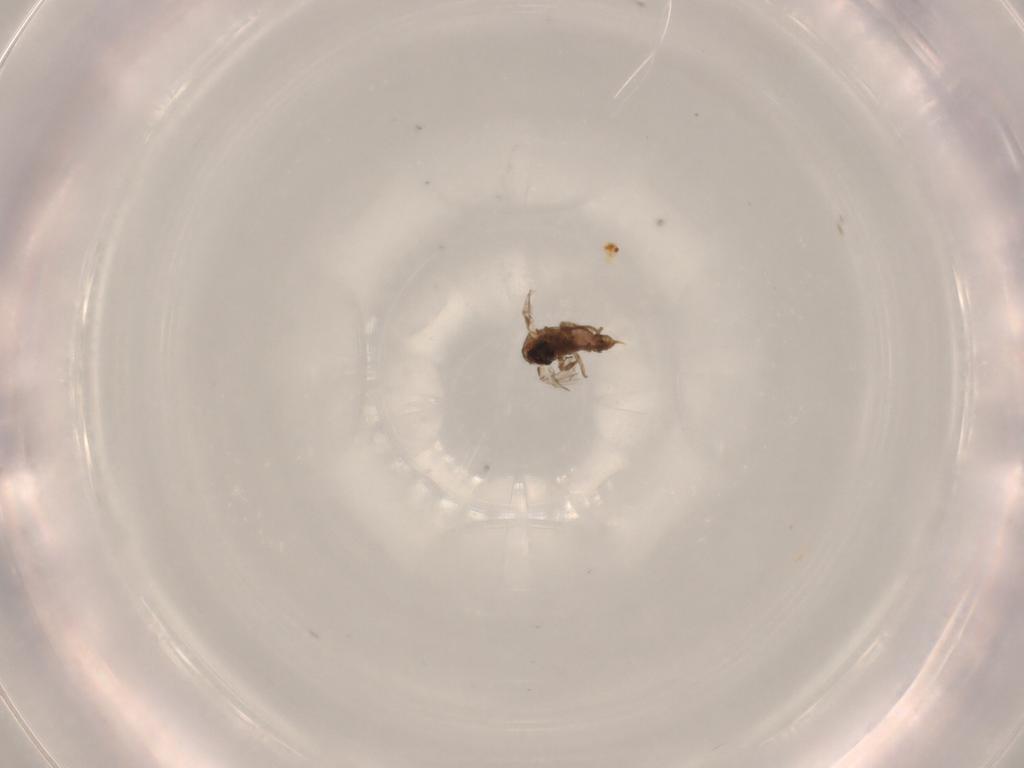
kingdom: Animalia
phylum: Arthropoda
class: Insecta
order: Diptera
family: Psychodidae
